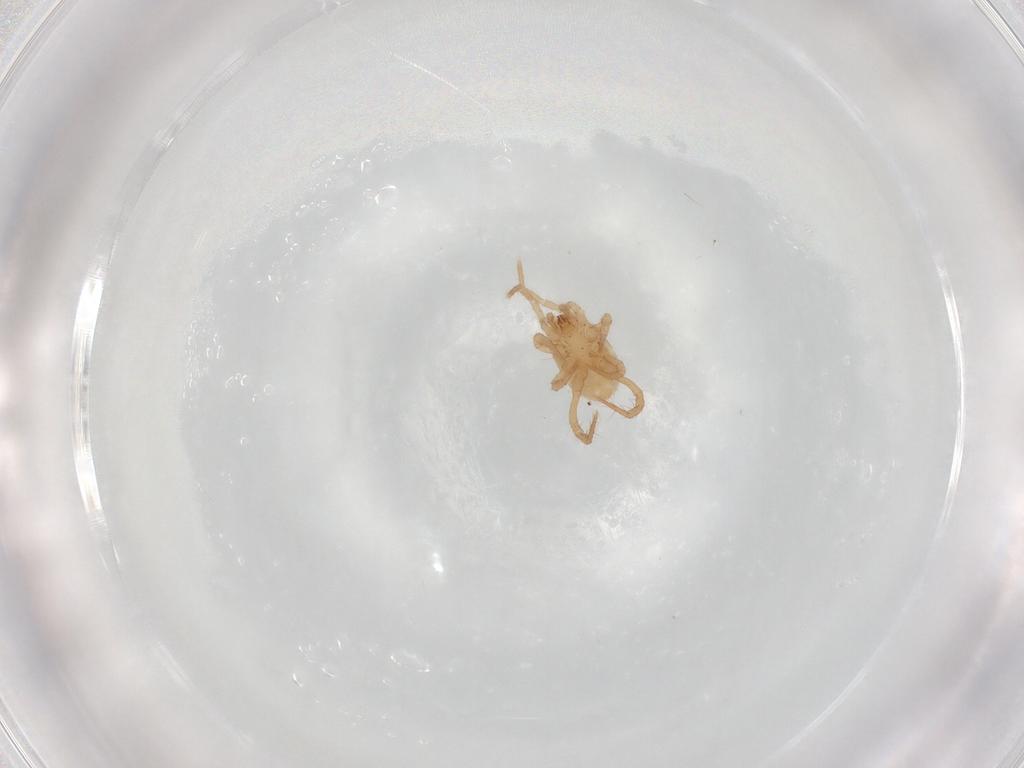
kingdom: Animalia
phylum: Arthropoda
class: Arachnida
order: Mesostigmata
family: Parasitidae
